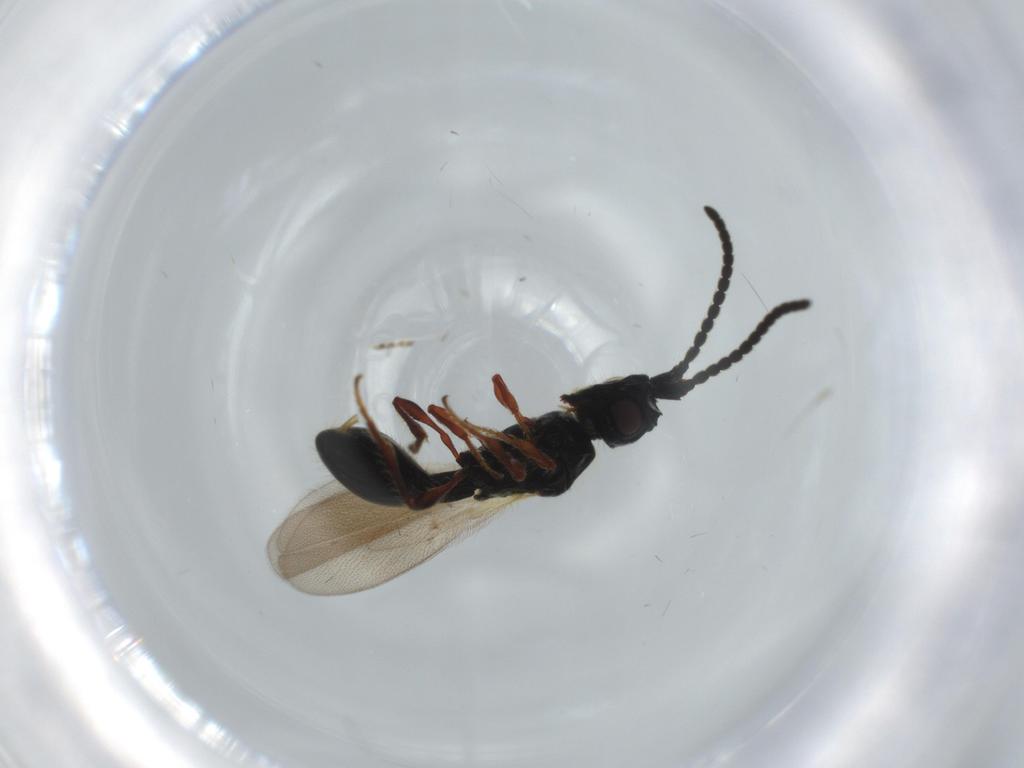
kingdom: Animalia
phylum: Arthropoda
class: Insecta
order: Hymenoptera
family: Diapriidae
